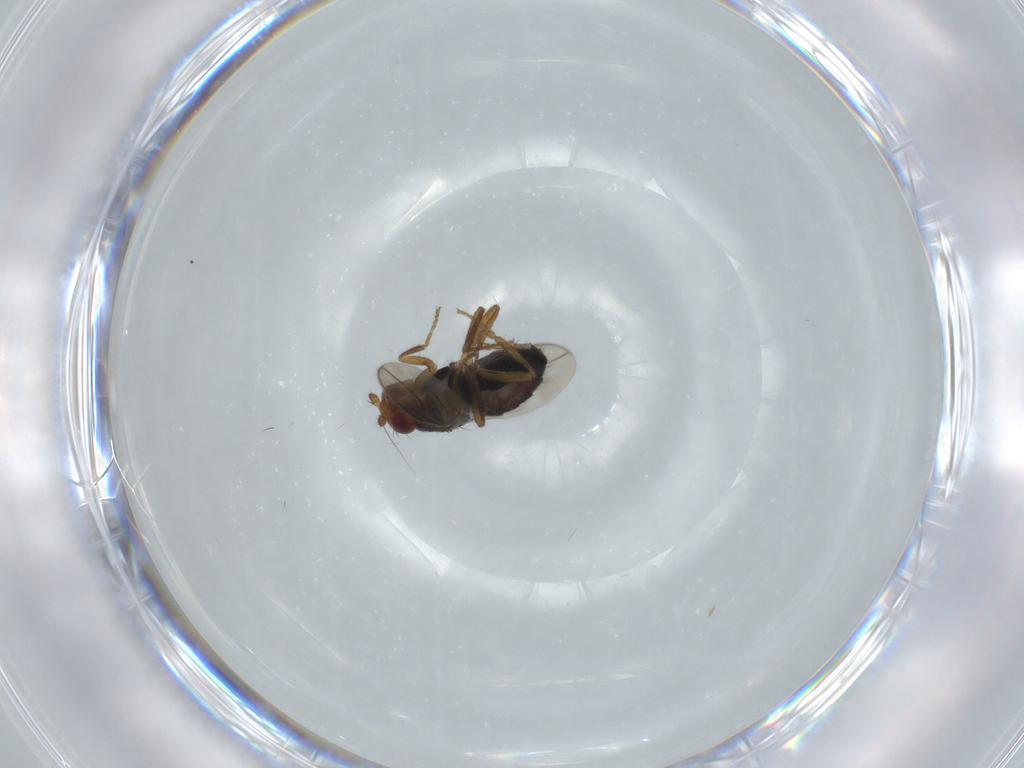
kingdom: Animalia
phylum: Arthropoda
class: Insecta
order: Diptera
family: Sphaeroceridae
